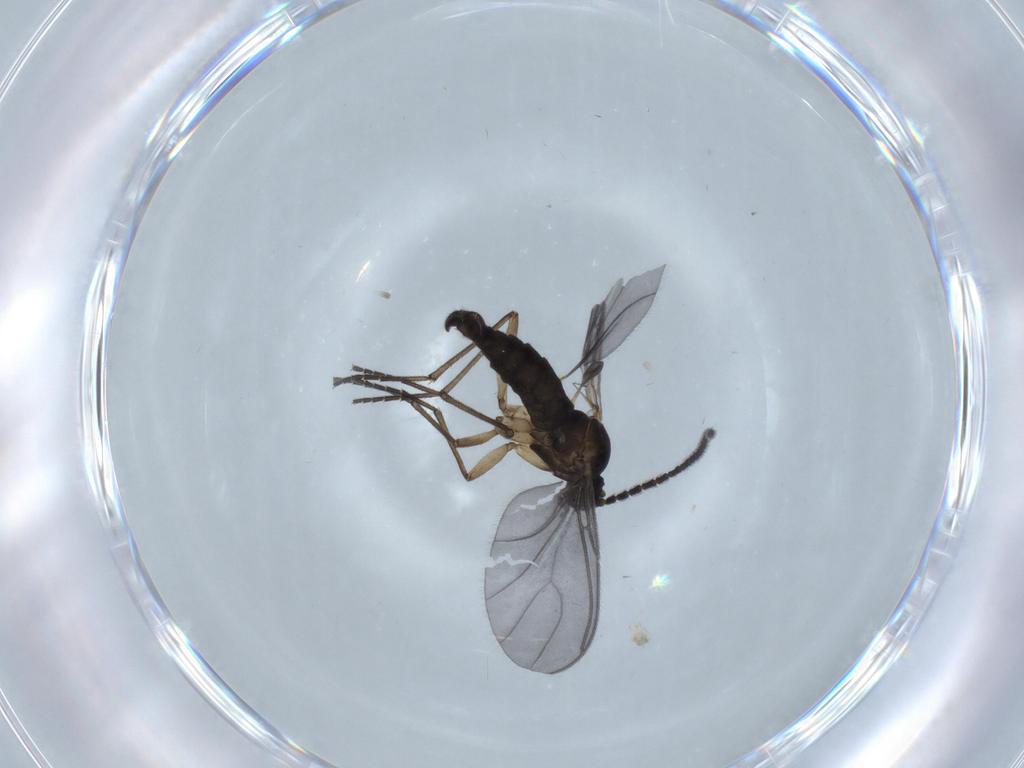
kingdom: Animalia
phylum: Arthropoda
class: Insecta
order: Diptera
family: Sciaridae
